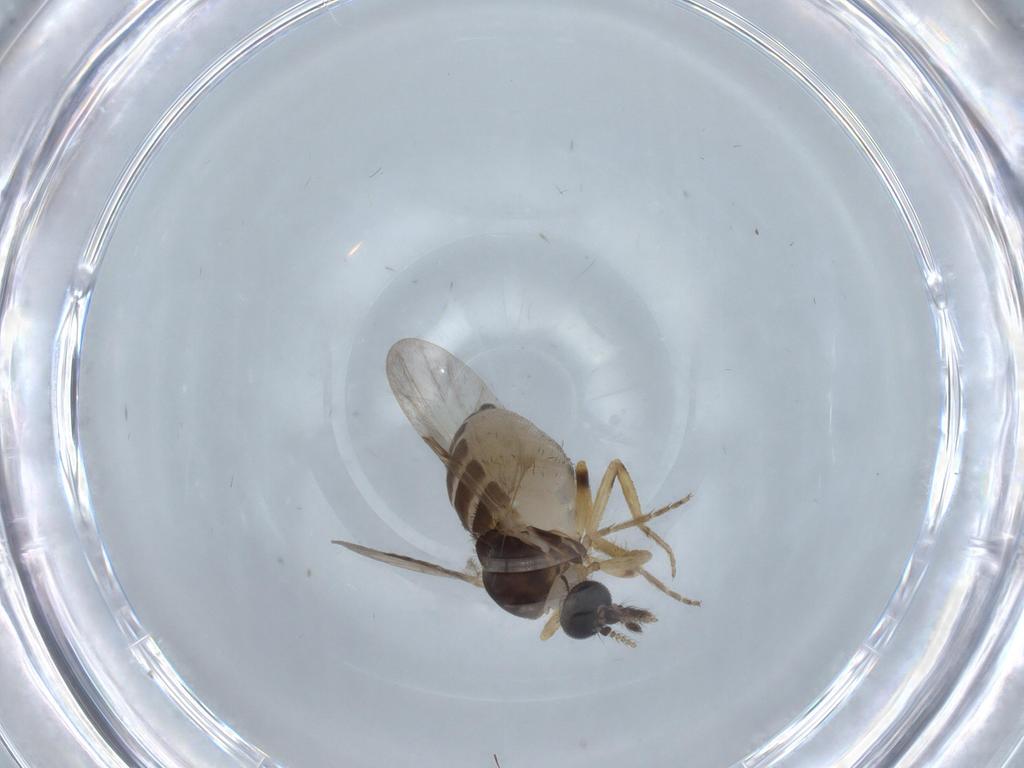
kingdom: Animalia
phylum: Arthropoda
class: Insecta
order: Diptera
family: Ceratopogonidae
